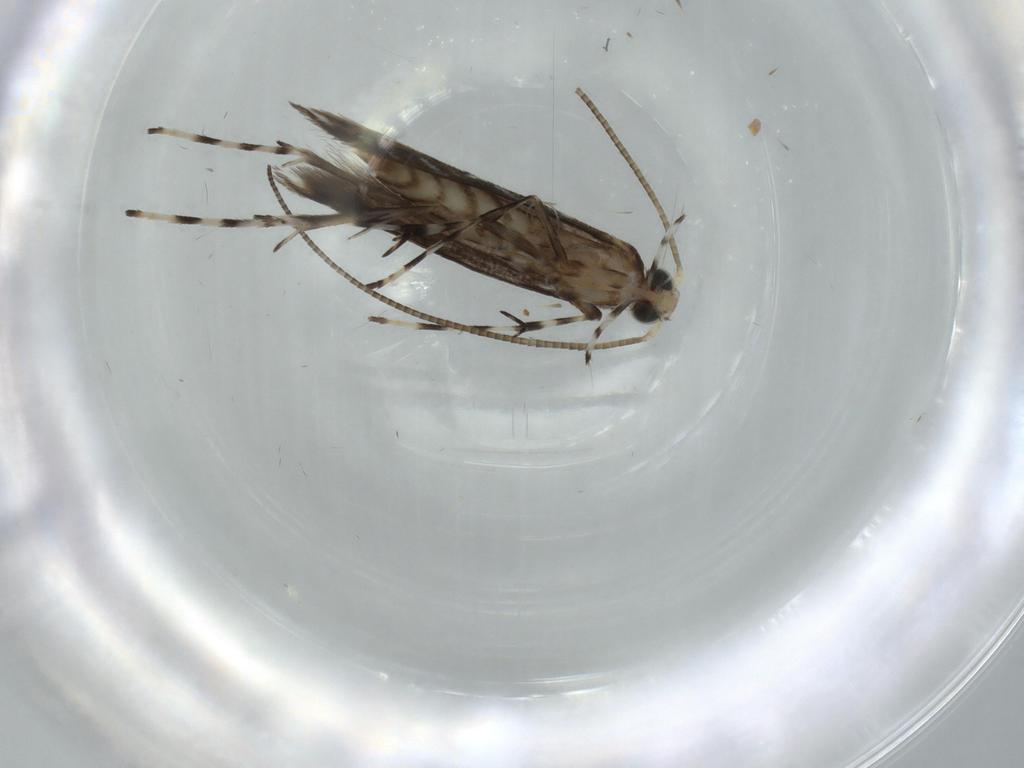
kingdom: Animalia
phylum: Arthropoda
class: Insecta
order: Lepidoptera
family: Gracillariidae
